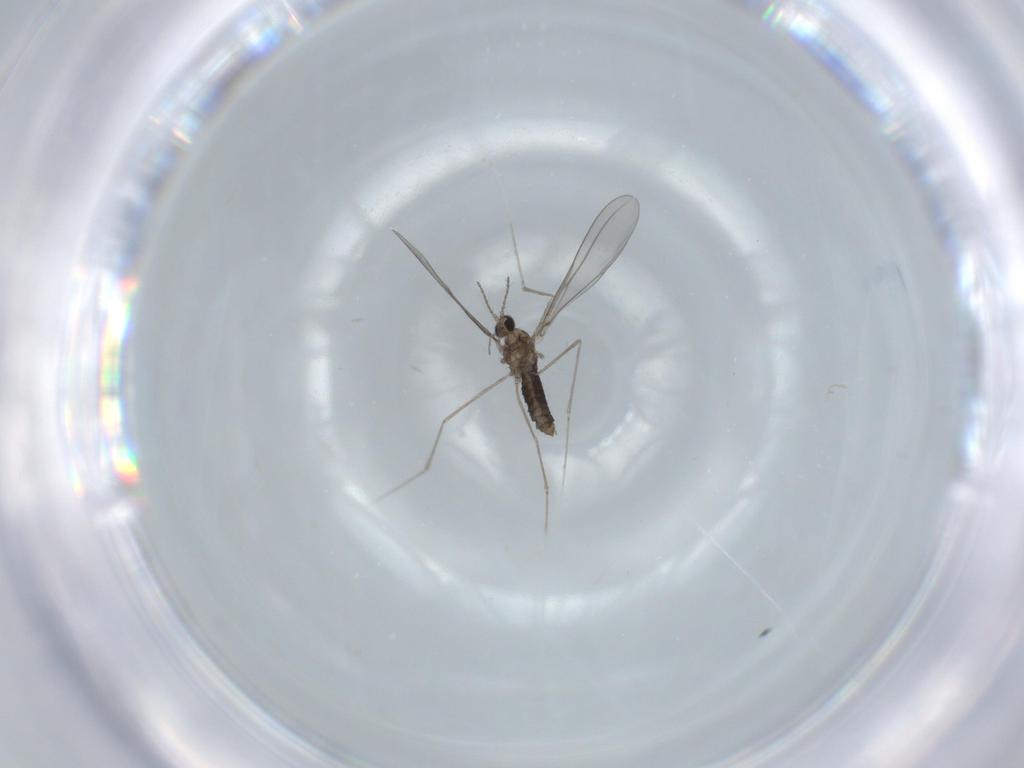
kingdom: Animalia
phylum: Arthropoda
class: Insecta
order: Diptera
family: Cecidomyiidae
